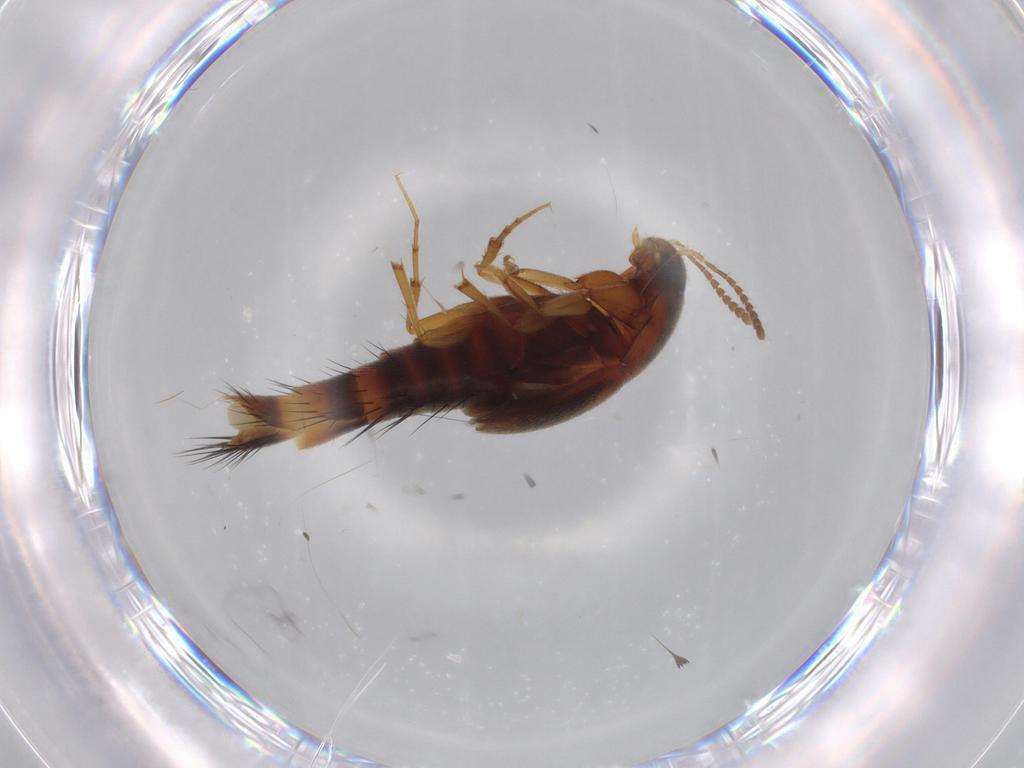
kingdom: Animalia
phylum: Arthropoda
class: Insecta
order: Coleoptera
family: Staphylinidae
